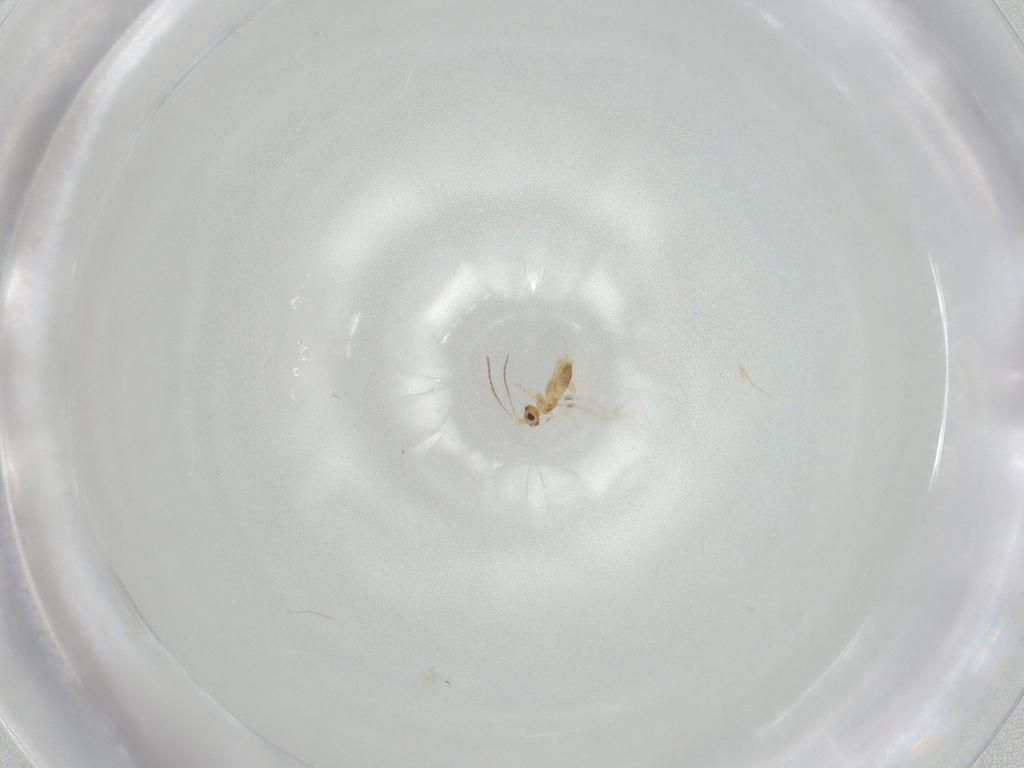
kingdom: Animalia
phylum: Arthropoda
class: Insecta
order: Hymenoptera
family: Mymaridae
